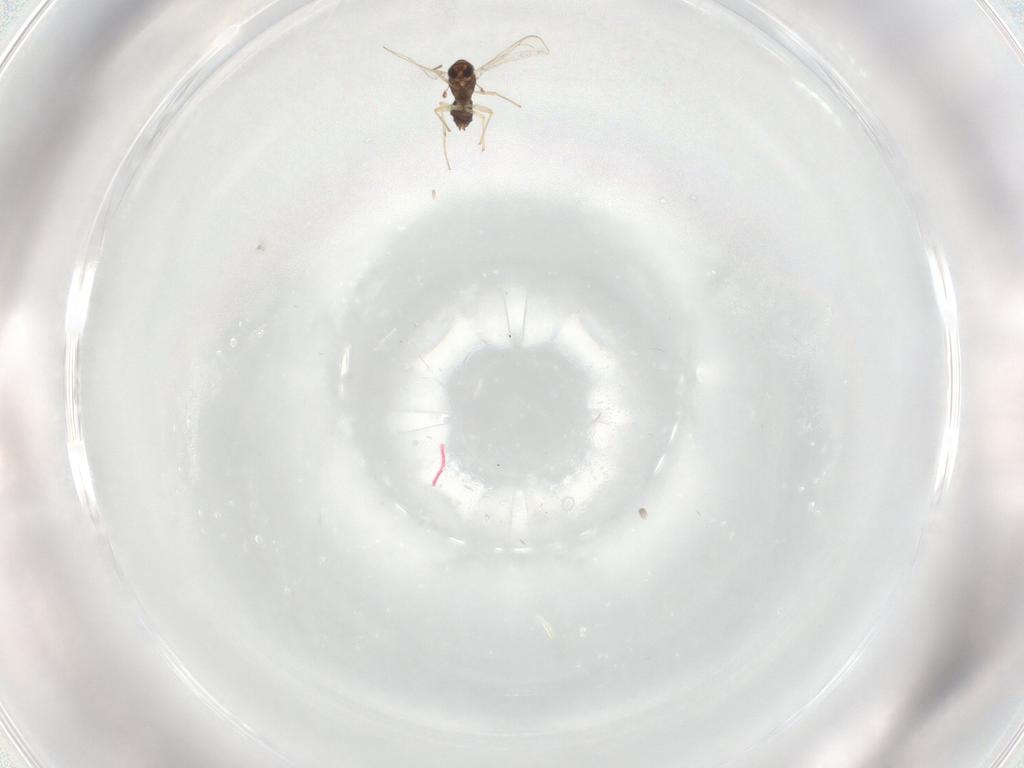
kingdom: Animalia
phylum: Arthropoda
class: Insecta
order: Diptera
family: Chironomidae
